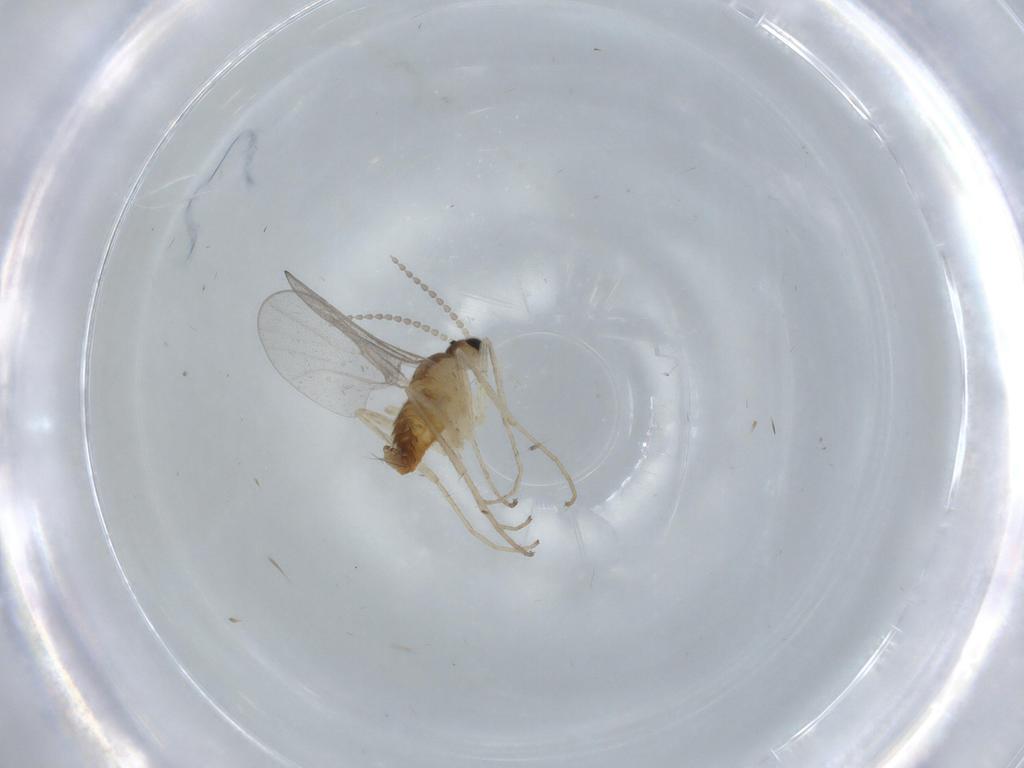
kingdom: Animalia
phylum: Arthropoda
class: Insecta
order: Diptera
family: Cecidomyiidae
